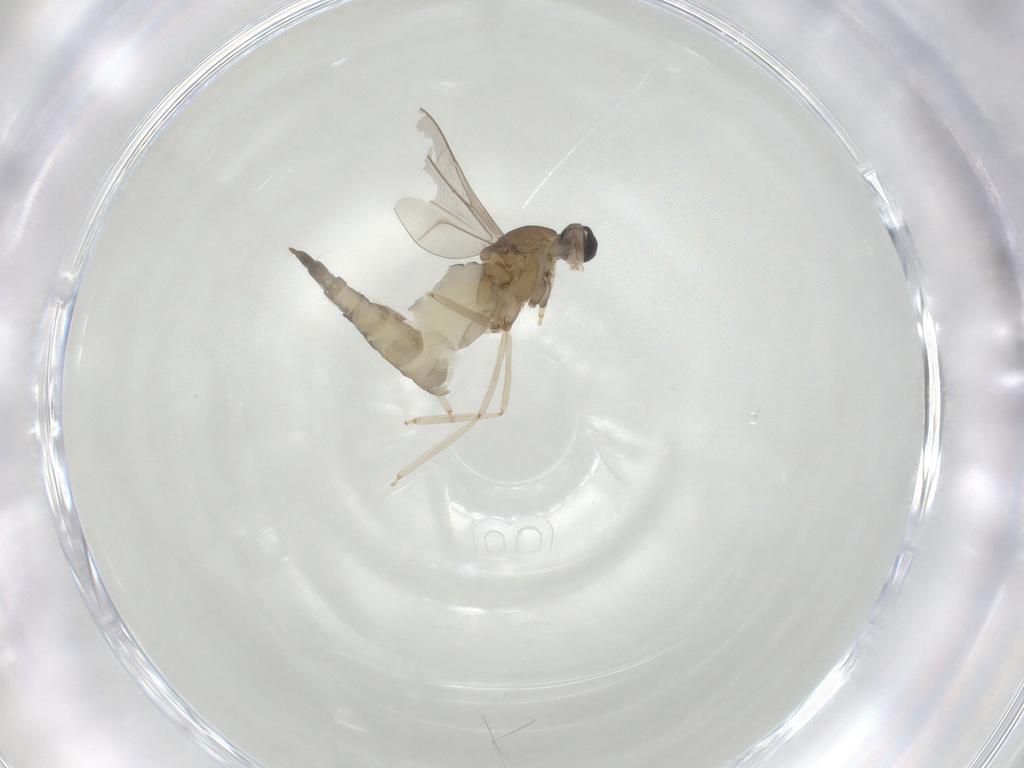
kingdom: Animalia
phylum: Arthropoda
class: Insecta
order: Diptera
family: Cecidomyiidae
